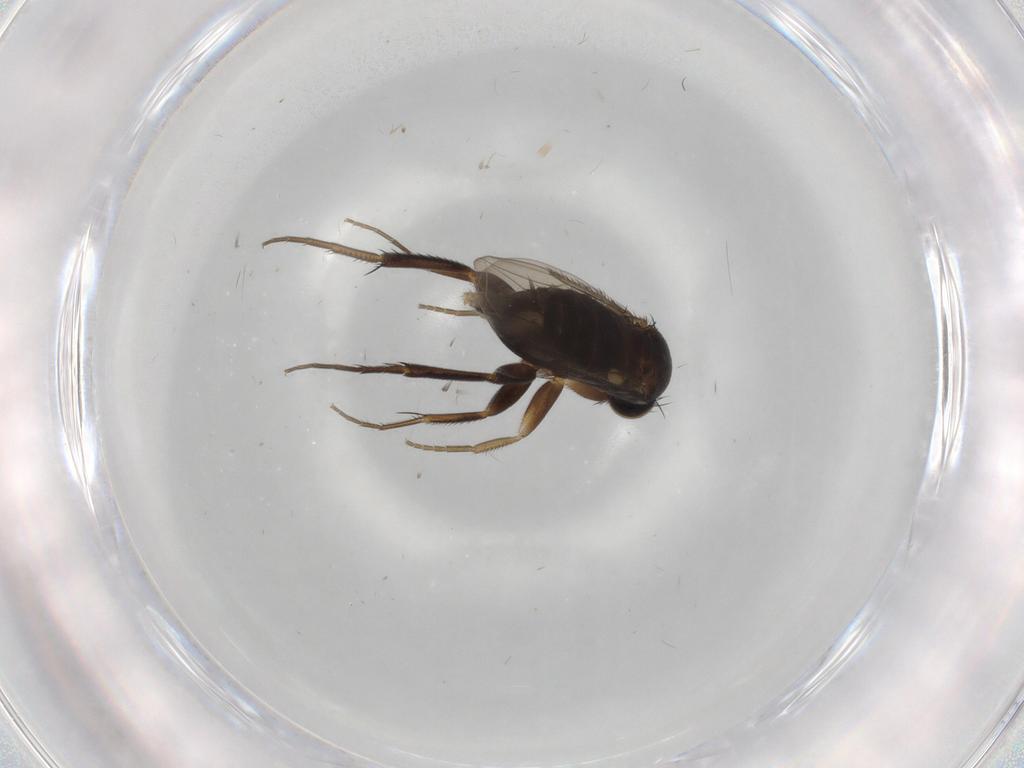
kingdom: Animalia
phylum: Arthropoda
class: Insecta
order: Diptera
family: Phoridae
